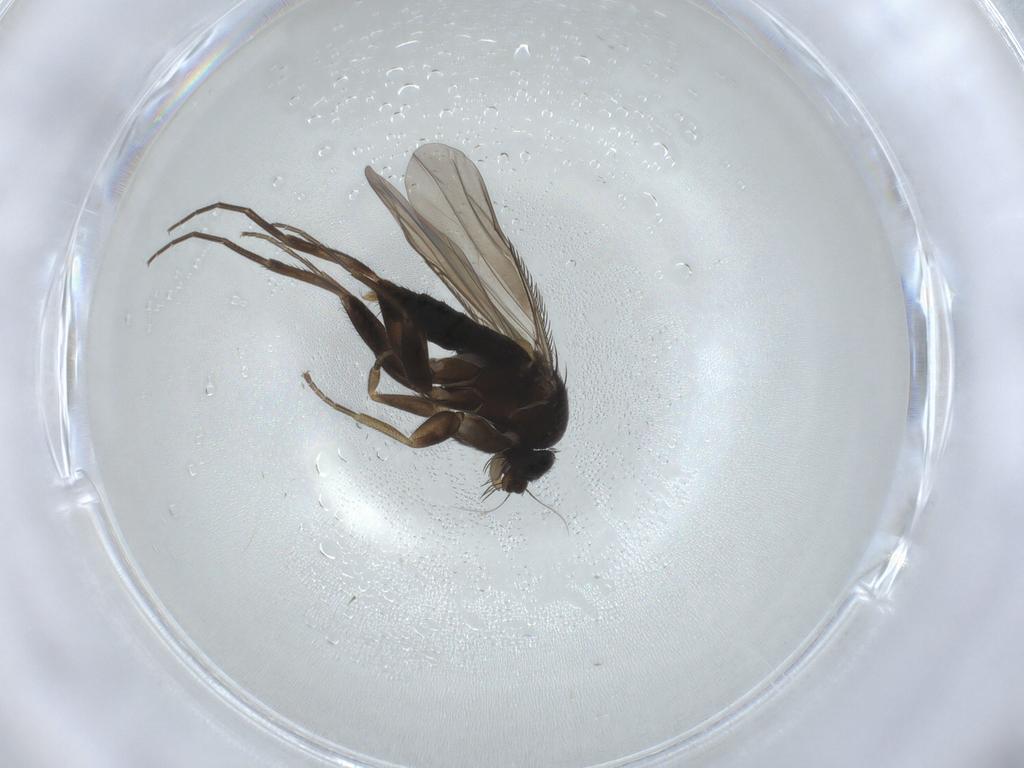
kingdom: Animalia
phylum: Arthropoda
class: Insecta
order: Diptera
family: Phoridae
